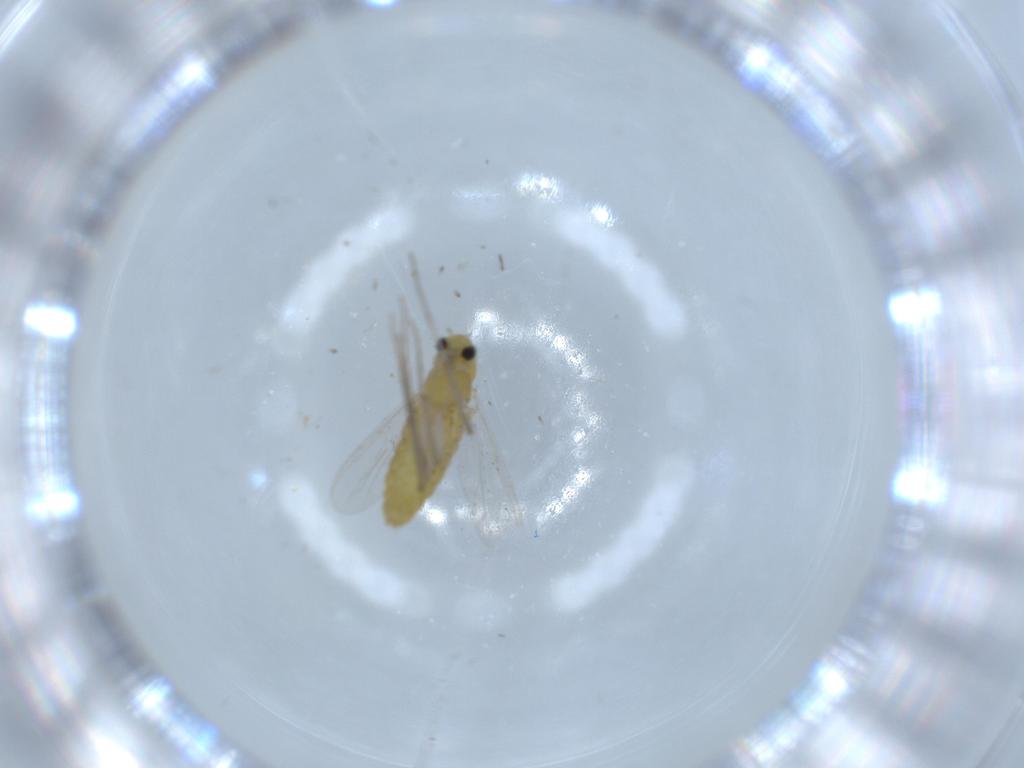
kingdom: Animalia
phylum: Arthropoda
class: Insecta
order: Diptera
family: Chironomidae
